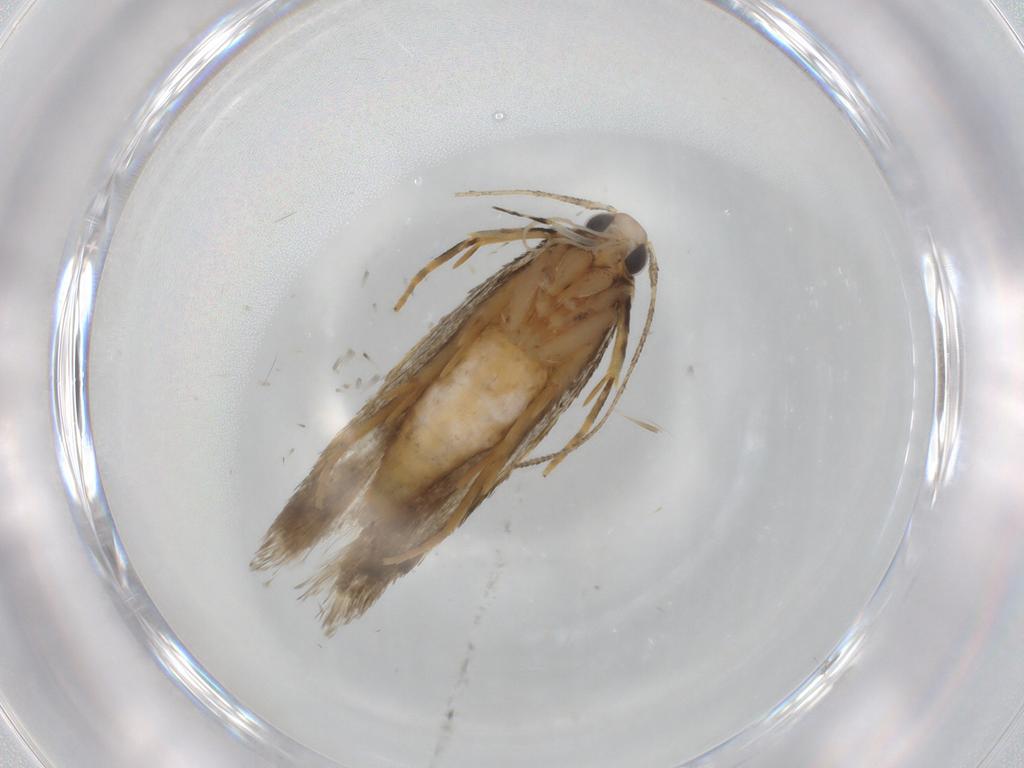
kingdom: Animalia
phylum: Arthropoda
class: Insecta
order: Lepidoptera
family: Autostichidae
